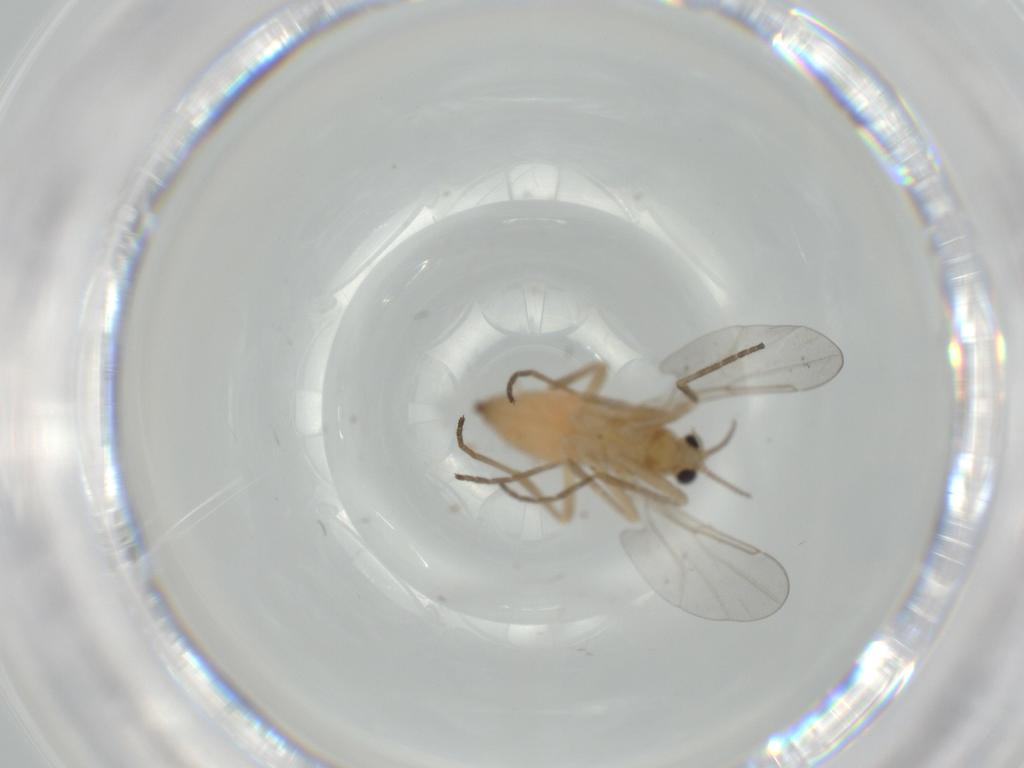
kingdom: Animalia
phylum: Arthropoda
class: Insecta
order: Diptera
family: Cecidomyiidae
